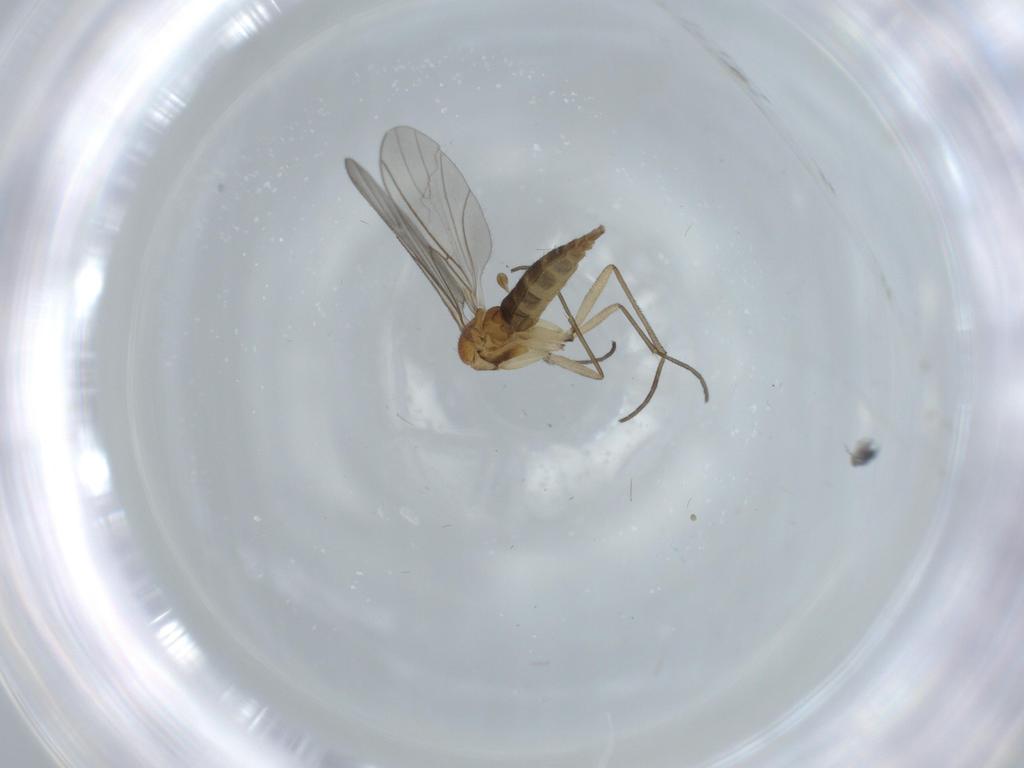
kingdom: Animalia
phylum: Arthropoda
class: Insecta
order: Diptera
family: Sciaridae
